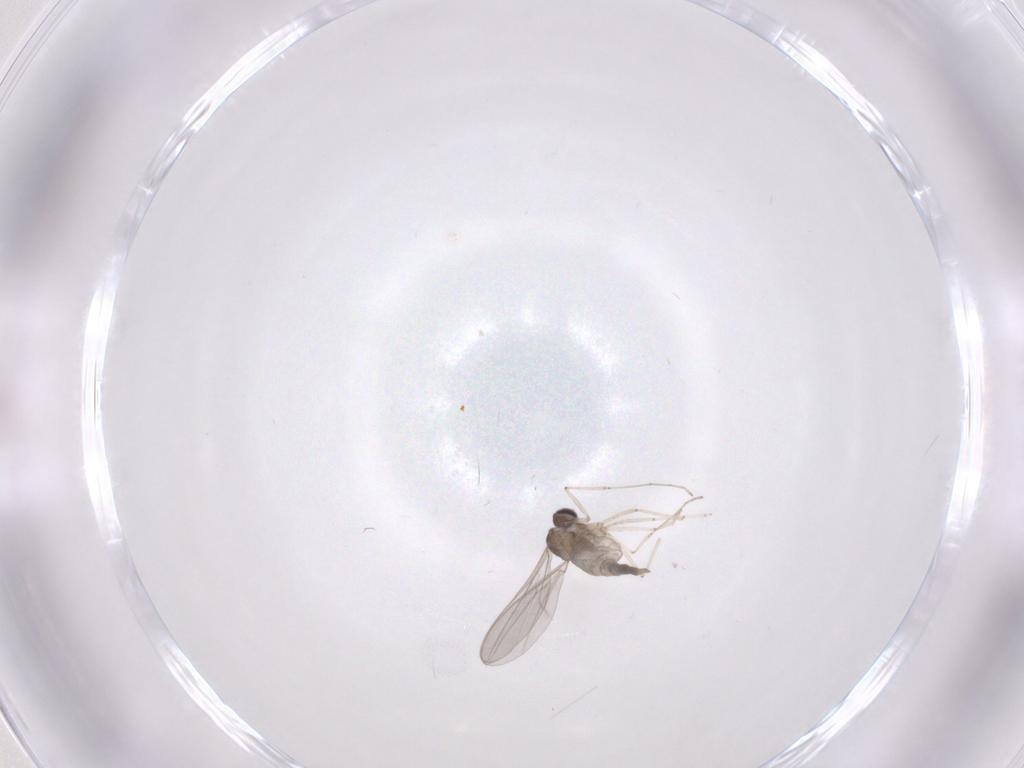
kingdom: Animalia
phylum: Arthropoda
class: Insecta
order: Diptera
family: Cecidomyiidae
